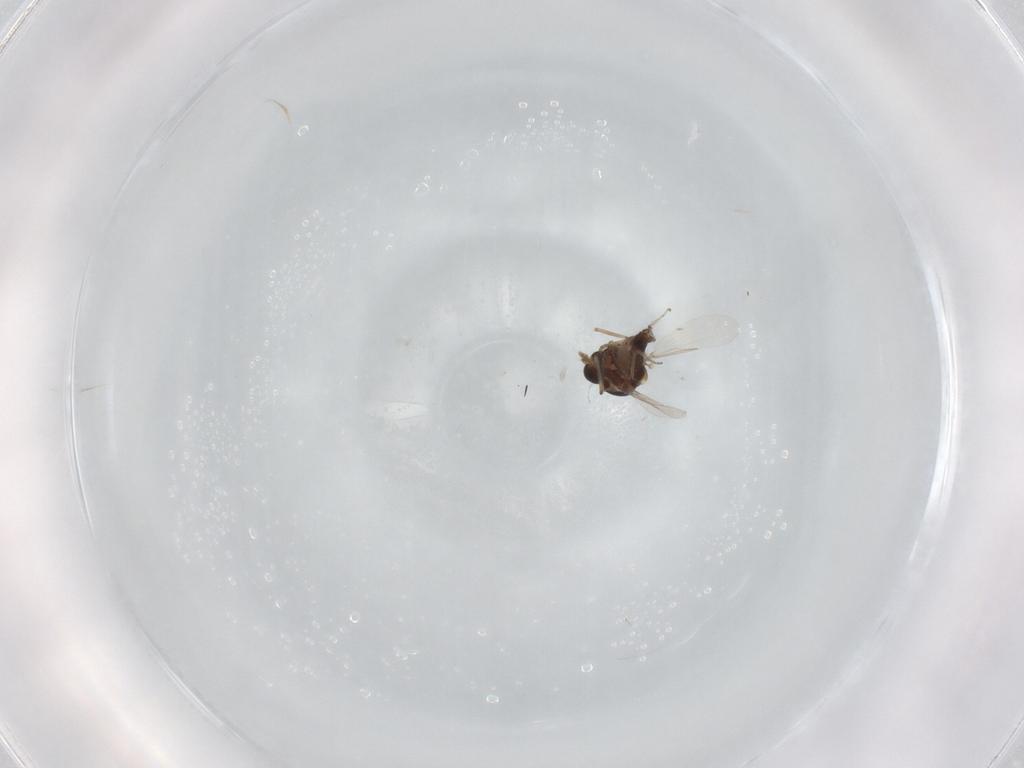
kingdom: Animalia
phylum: Arthropoda
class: Insecta
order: Diptera
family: Ceratopogonidae
